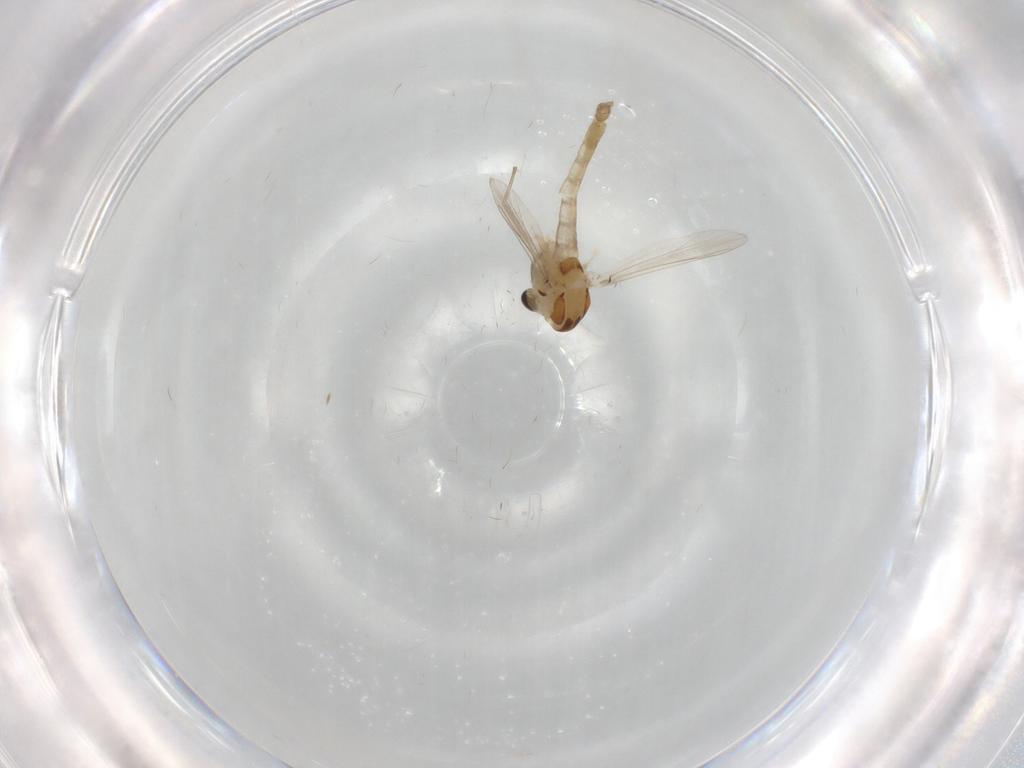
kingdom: Animalia
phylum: Arthropoda
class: Insecta
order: Diptera
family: Chironomidae
